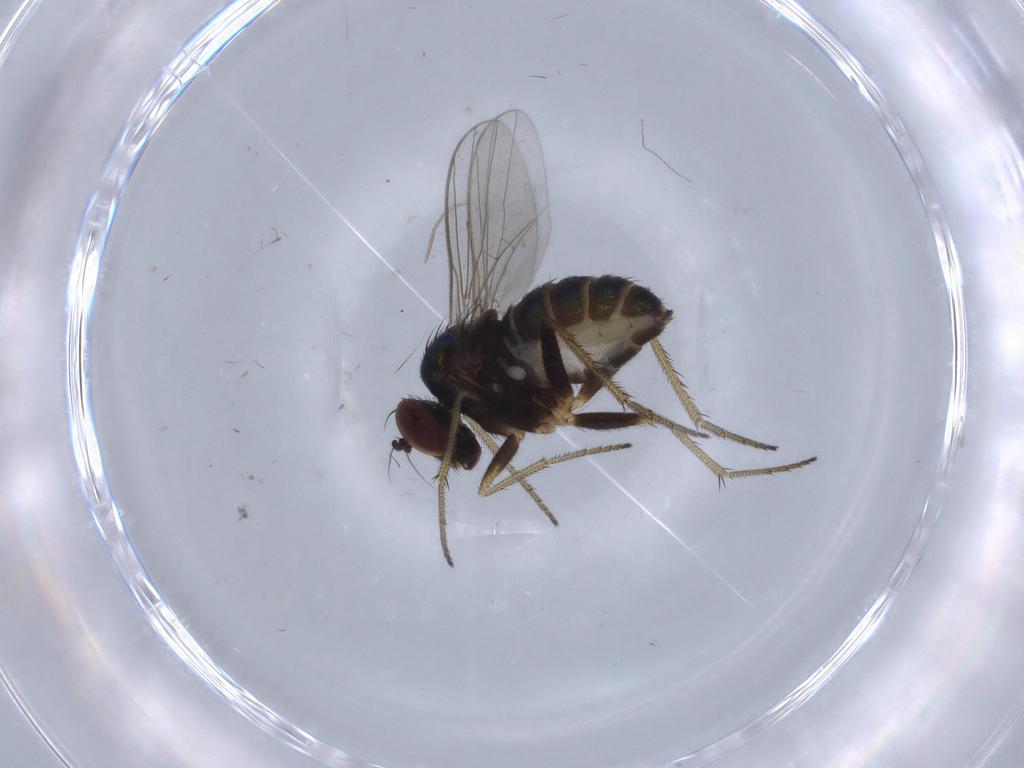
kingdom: Animalia
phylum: Arthropoda
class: Insecta
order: Diptera
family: Dolichopodidae
